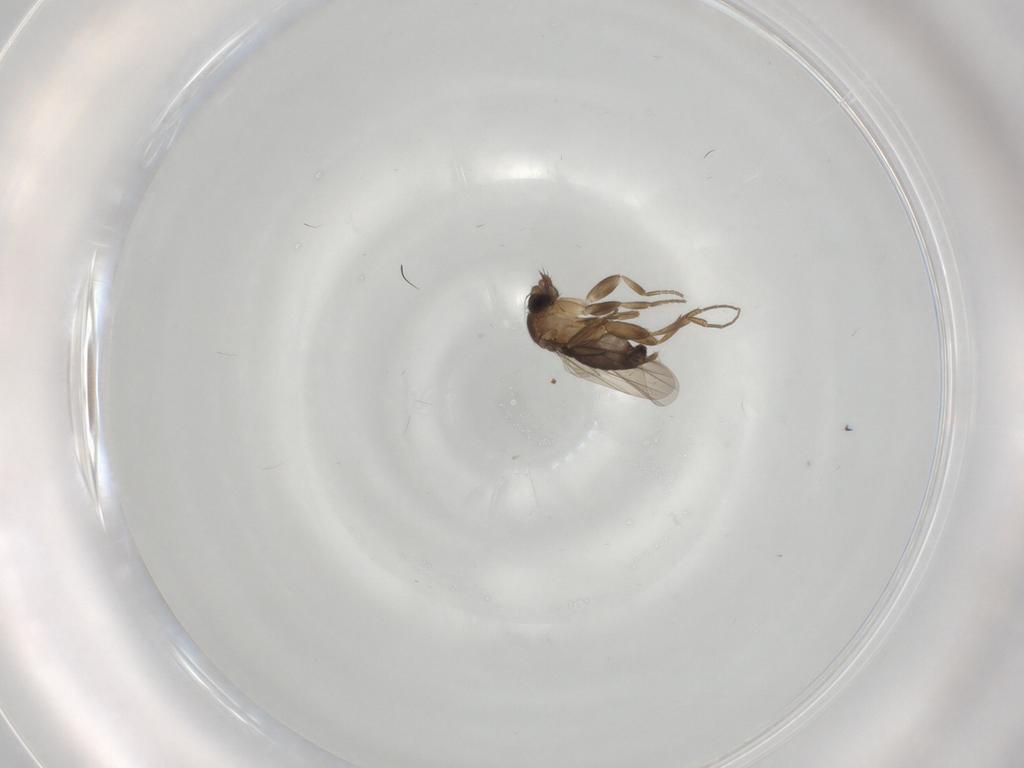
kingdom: Animalia
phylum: Arthropoda
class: Insecta
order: Diptera
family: Phoridae
